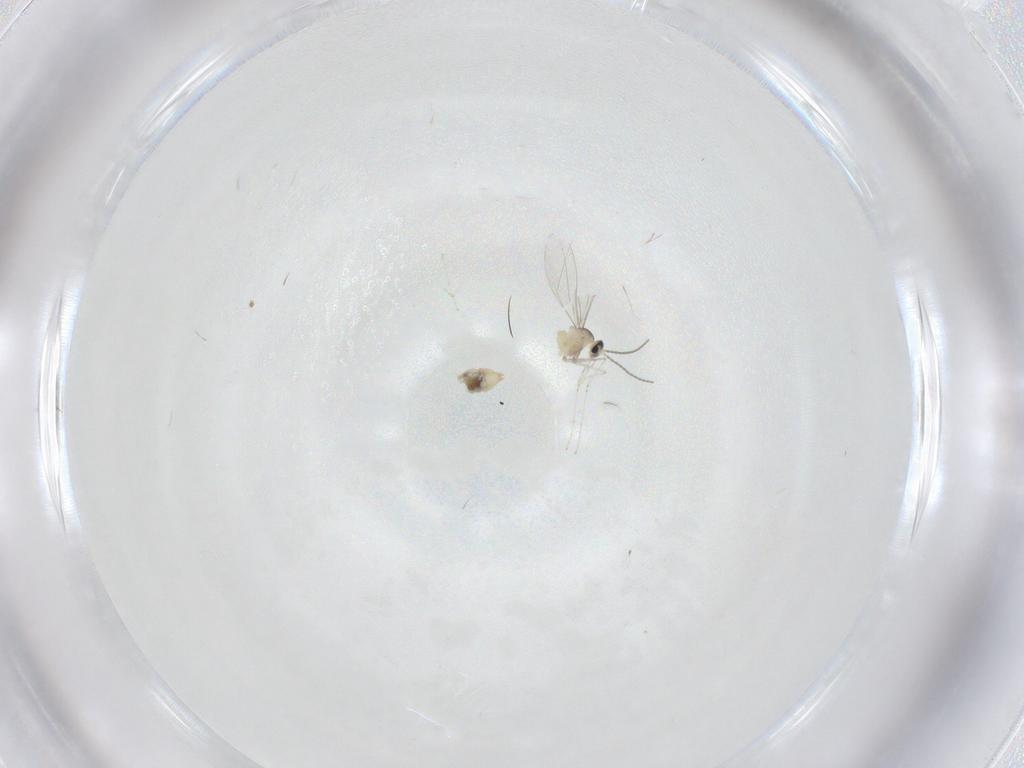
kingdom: Animalia
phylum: Arthropoda
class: Insecta
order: Diptera
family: Cecidomyiidae
